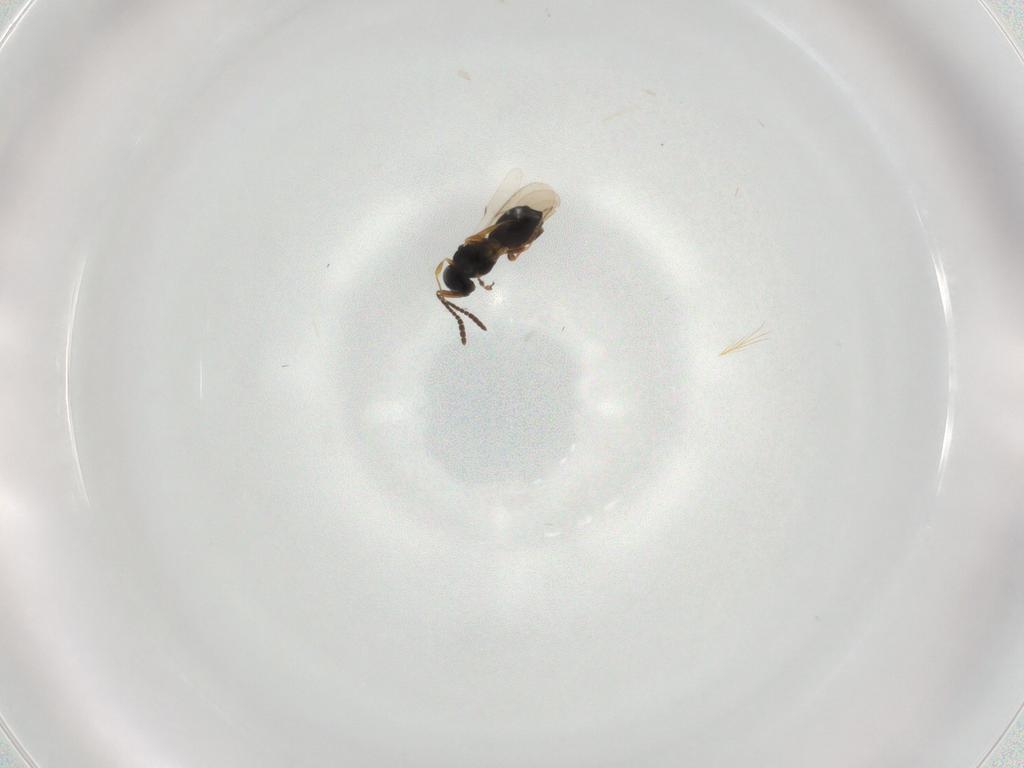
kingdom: Animalia
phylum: Arthropoda
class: Insecta
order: Hymenoptera
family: Scelionidae
